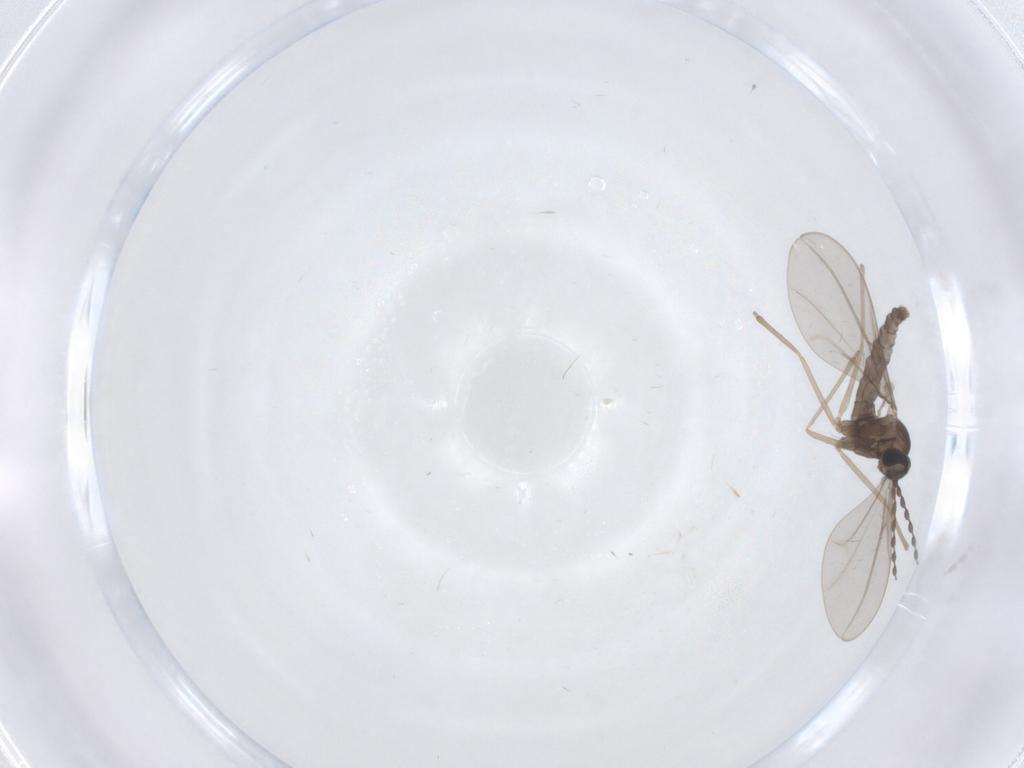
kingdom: Animalia
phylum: Arthropoda
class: Insecta
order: Diptera
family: Cecidomyiidae
